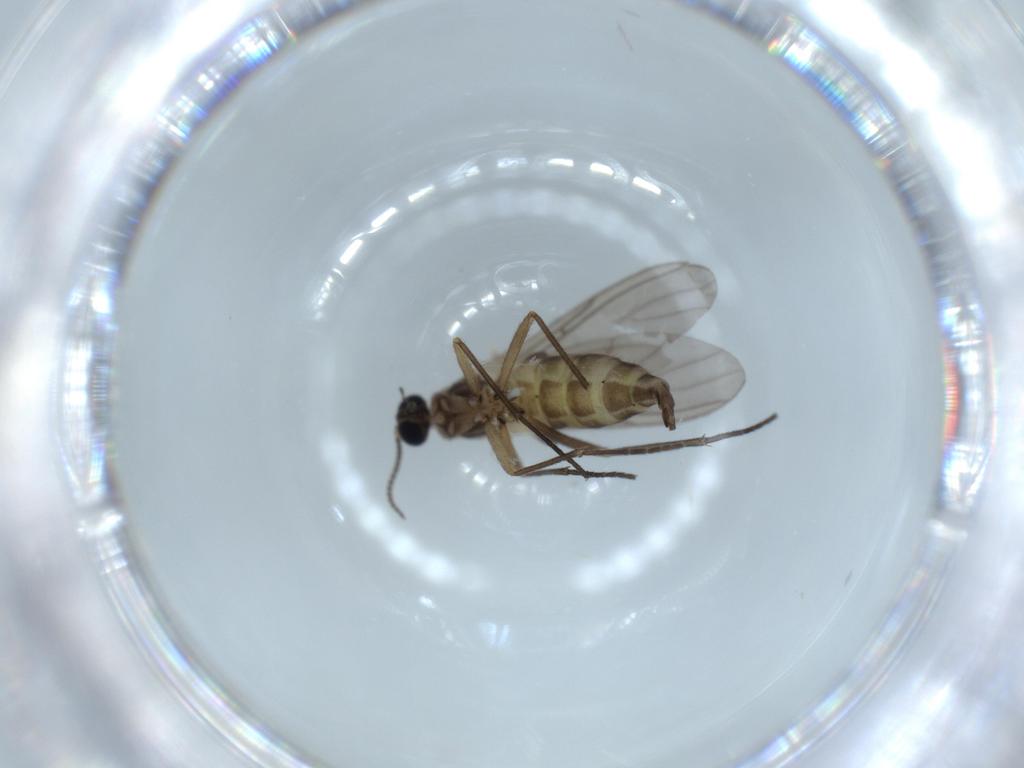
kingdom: Animalia
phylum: Arthropoda
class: Insecta
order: Diptera
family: Sciaridae
